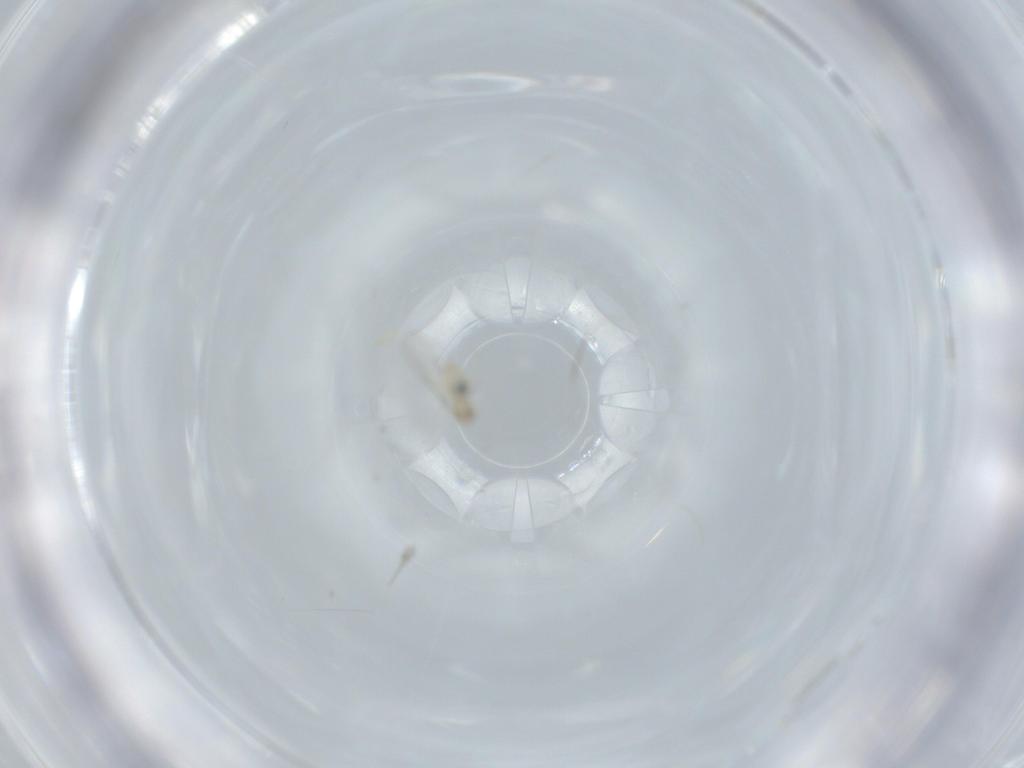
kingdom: Animalia
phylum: Arthropoda
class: Insecta
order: Diptera
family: Cecidomyiidae
